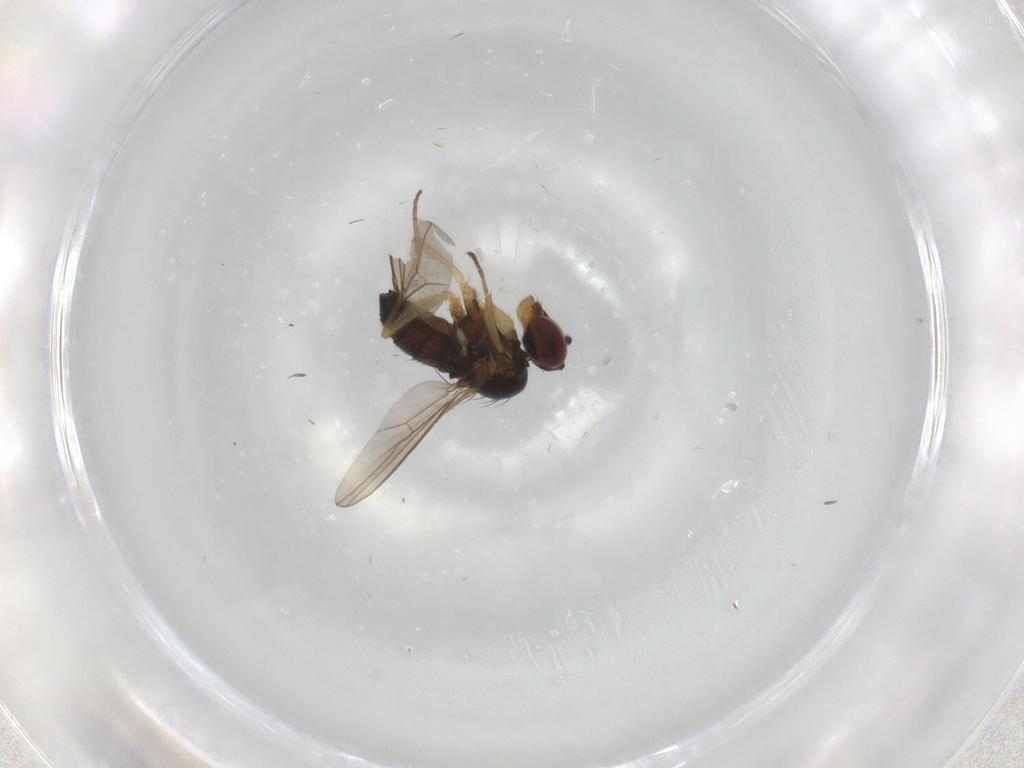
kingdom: Animalia
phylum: Arthropoda
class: Insecta
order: Diptera
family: Dolichopodidae
